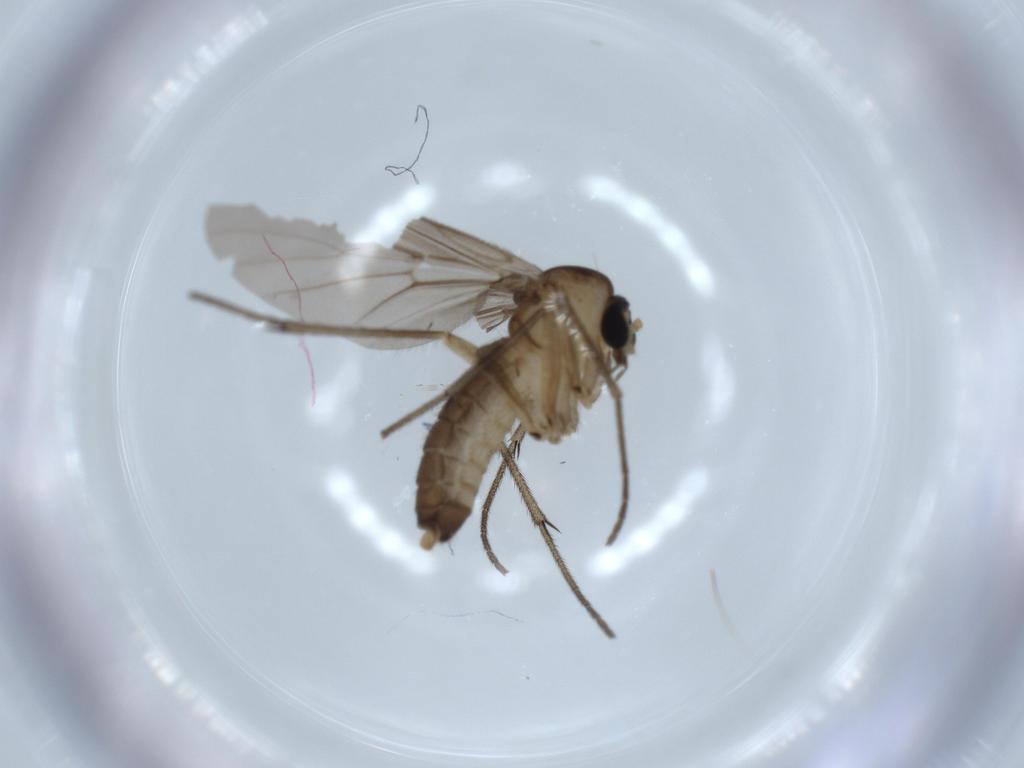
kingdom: Animalia
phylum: Arthropoda
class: Insecta
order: Diptera
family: Diadocidiidae
